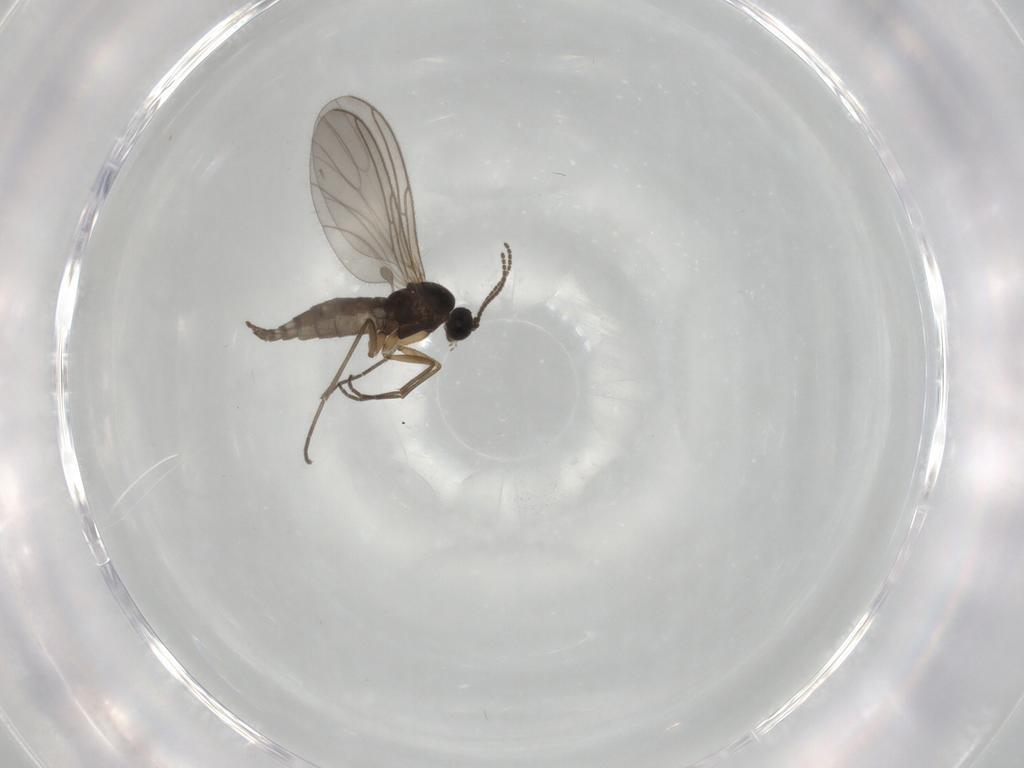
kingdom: Animalia
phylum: Arthropoda
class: Insecta
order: Diptera
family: Sciaridae
